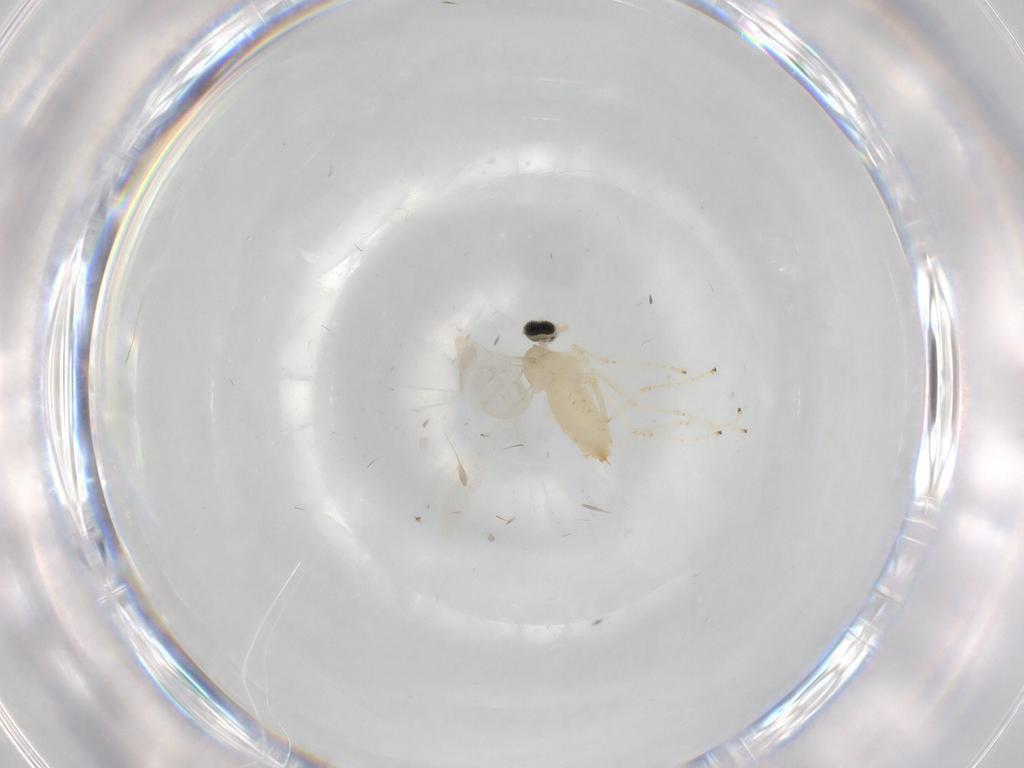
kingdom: Animalia
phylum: Arthropoda
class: Insecta
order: Diptera
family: Cecidomyiidae
